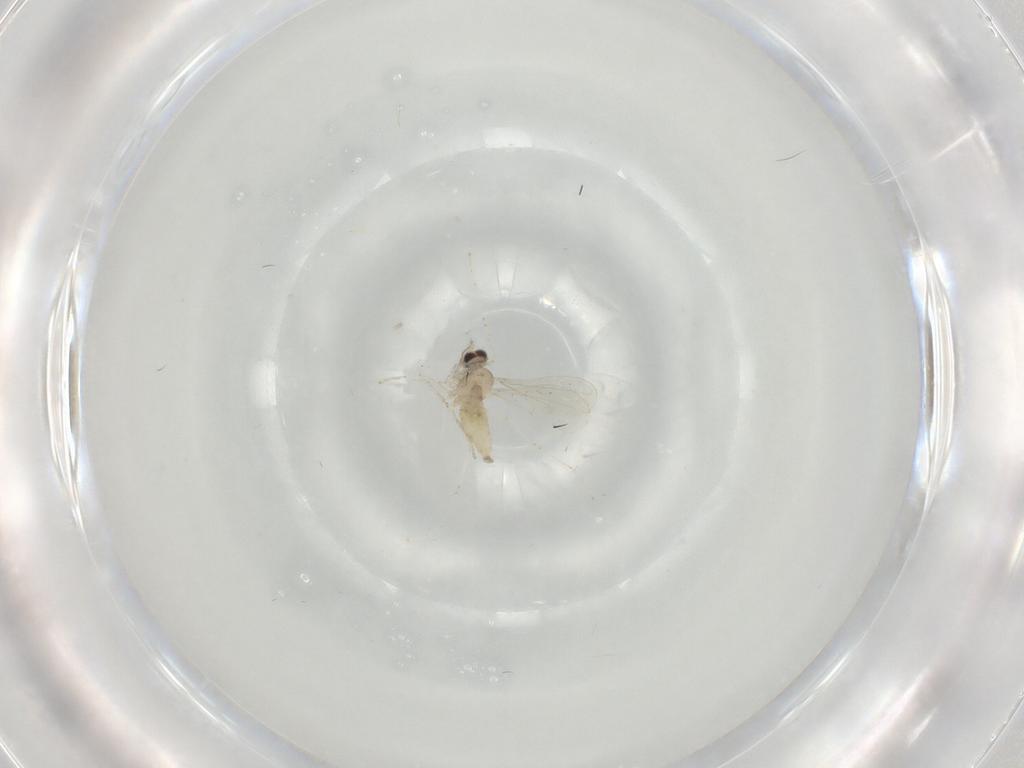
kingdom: Animalia
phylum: Arthropoda
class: Insecta
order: Diptera
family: Cecidomyiidae
